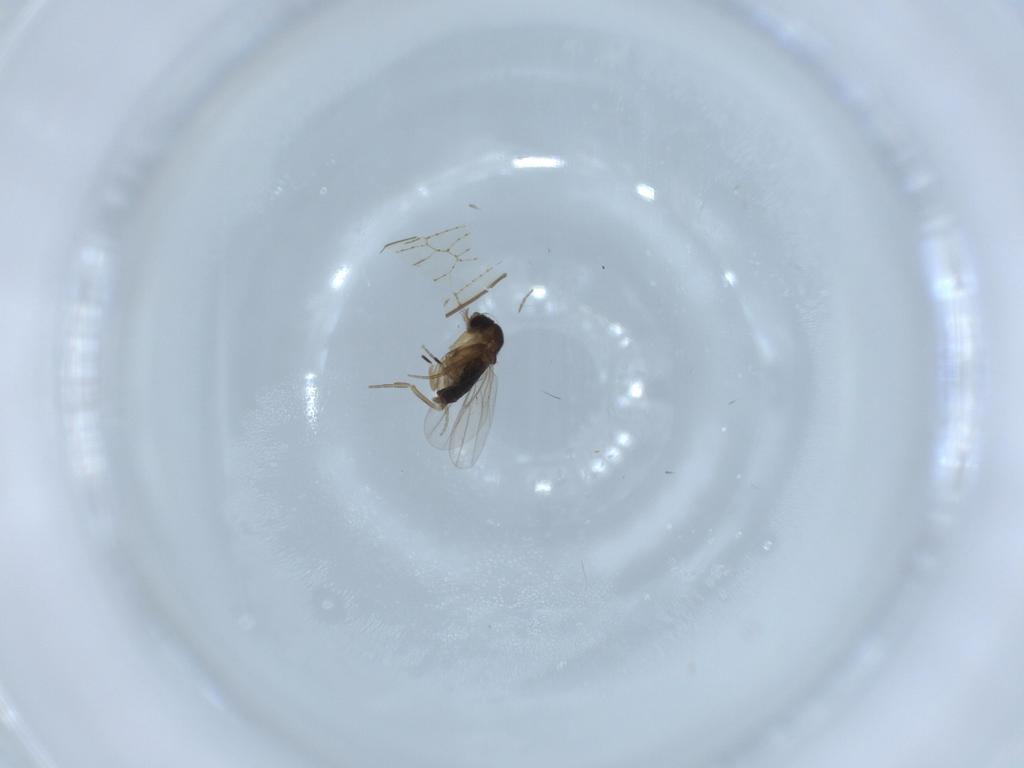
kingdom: Animalia
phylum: Arthropoda
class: Insecta
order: Diptera
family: Phoridae
